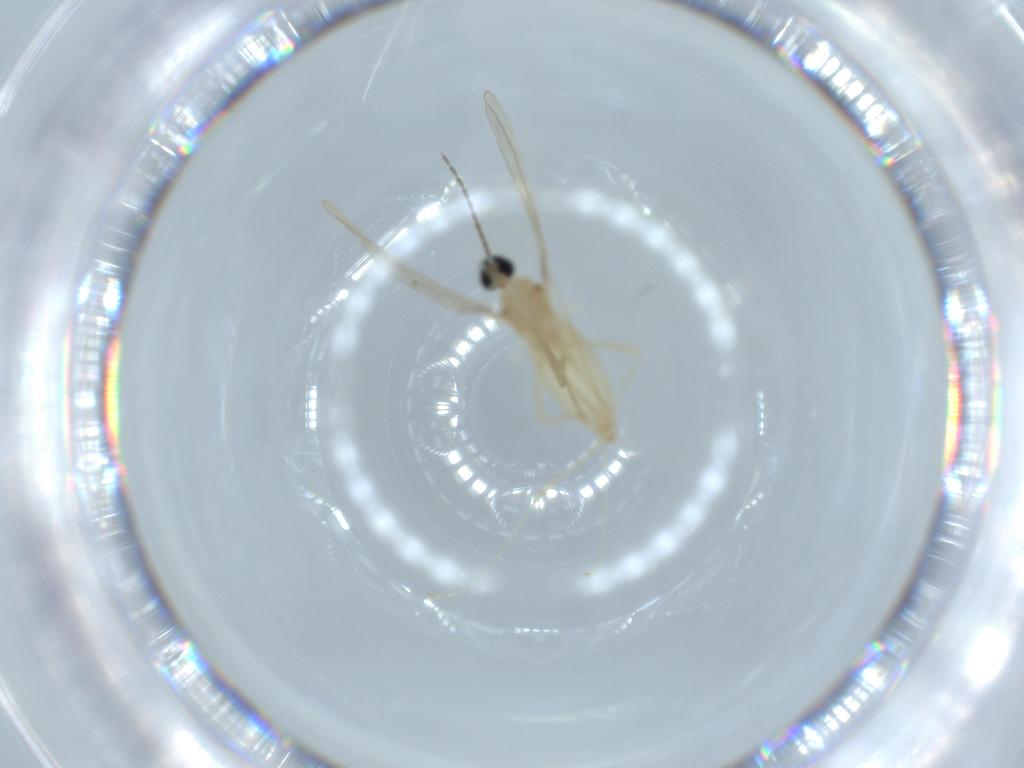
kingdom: Animalia
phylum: Arthropoda
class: Insecta
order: Diptera
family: Cecidomyiidae
